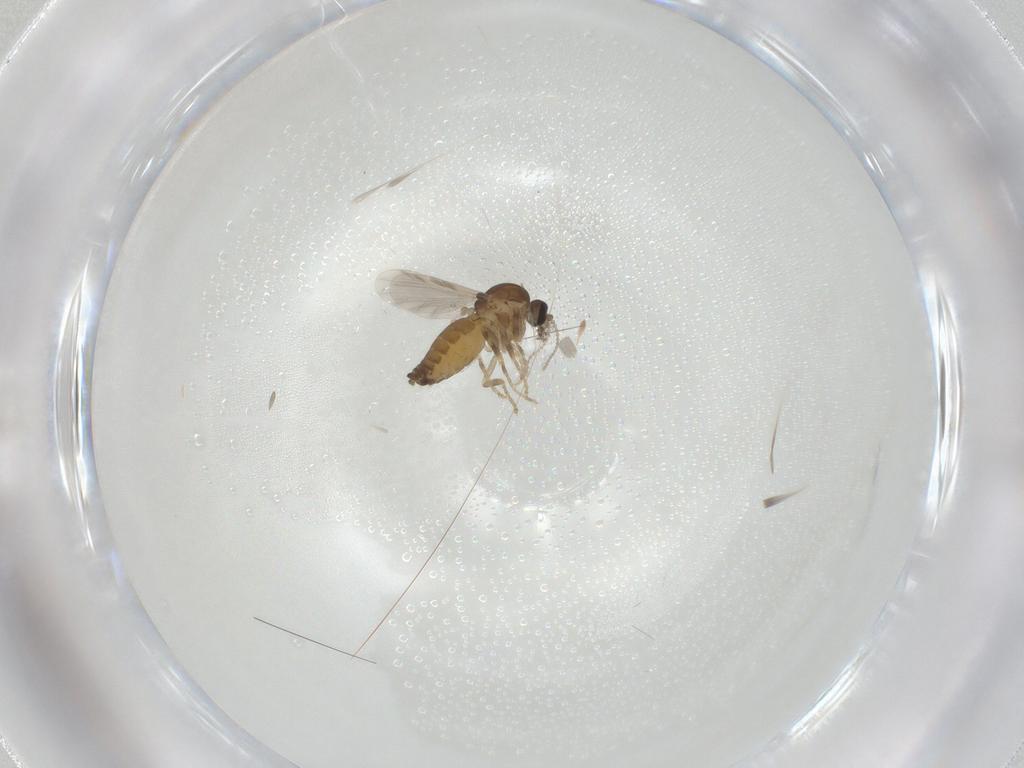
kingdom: Animalia
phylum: Arthropoda
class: Insecta
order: Diptera
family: Ceratopogonidae
